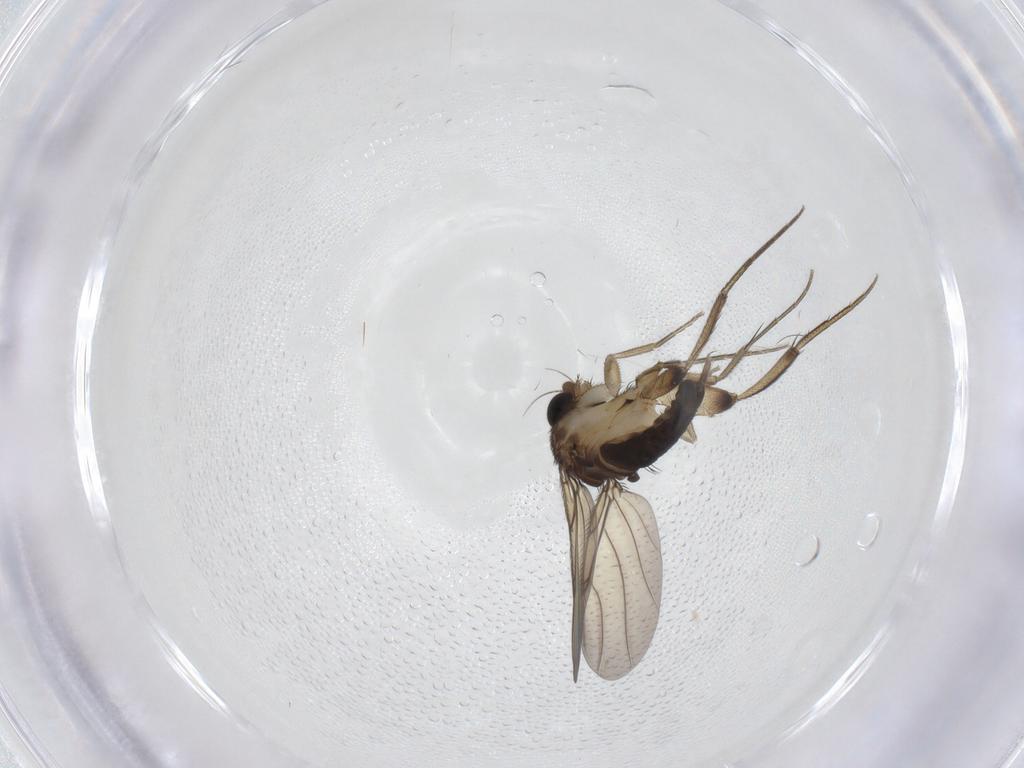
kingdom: Animalia
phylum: Arthropoda
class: Insecta
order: Diptera
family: Phoridae
